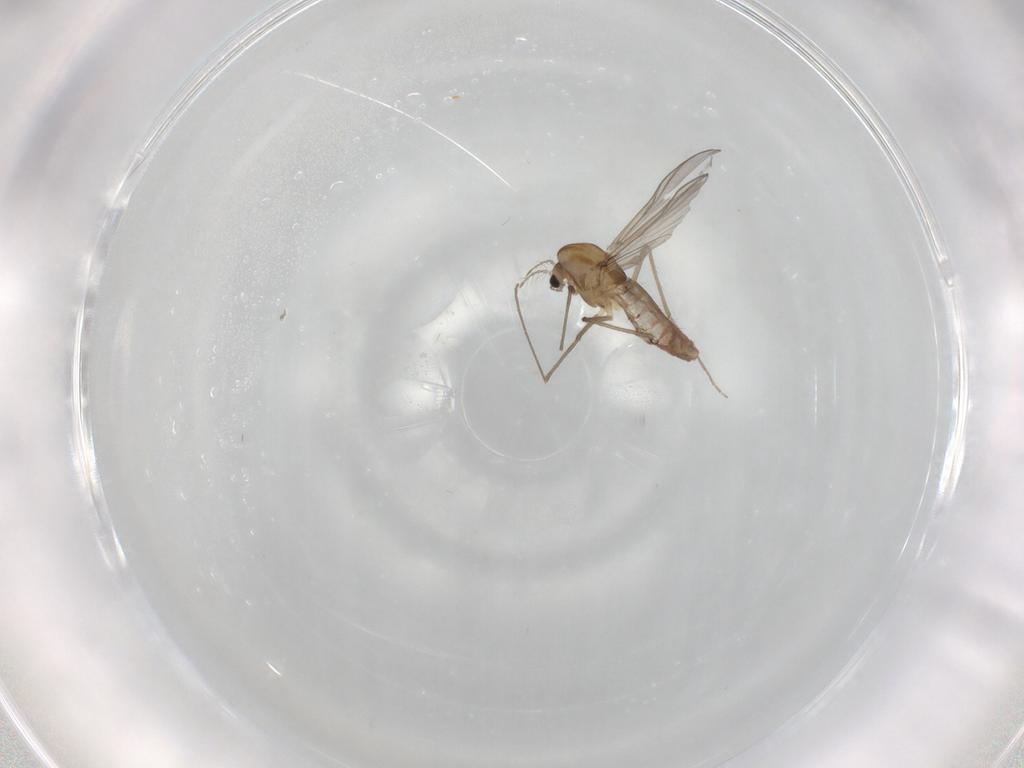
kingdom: Animalia
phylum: Arthropoda
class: Insecta
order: Diptera
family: Chironomidae
